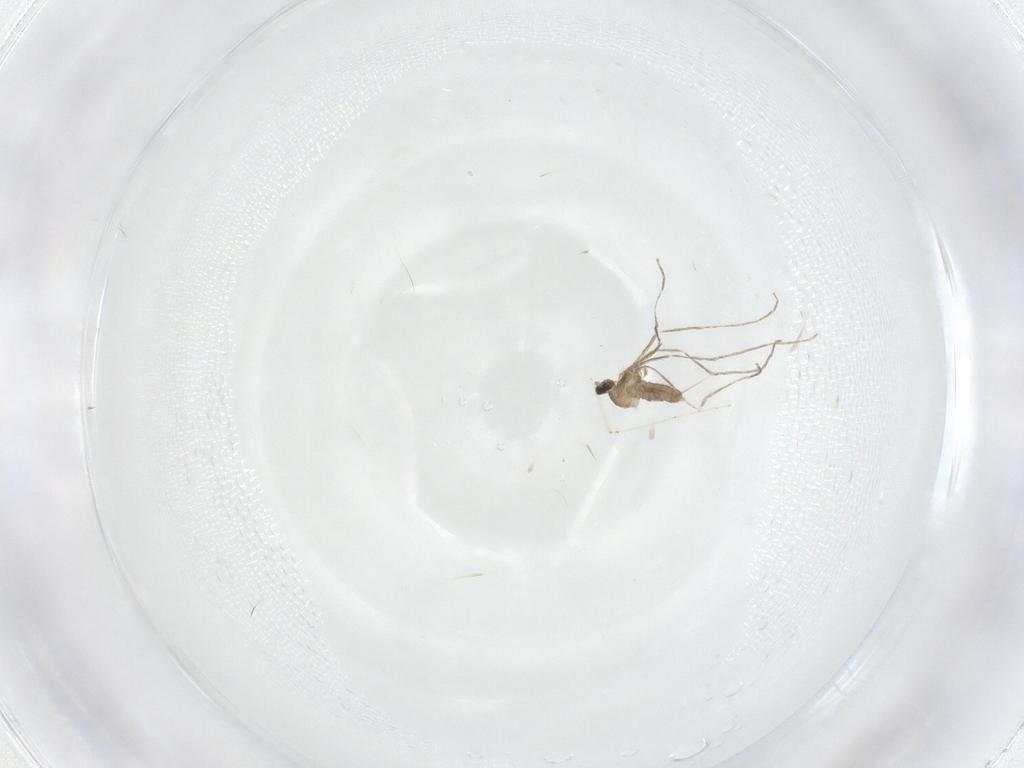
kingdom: Animalia
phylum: Arthropoda
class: Insecta
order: Diptera
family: Cecidomyiidae
